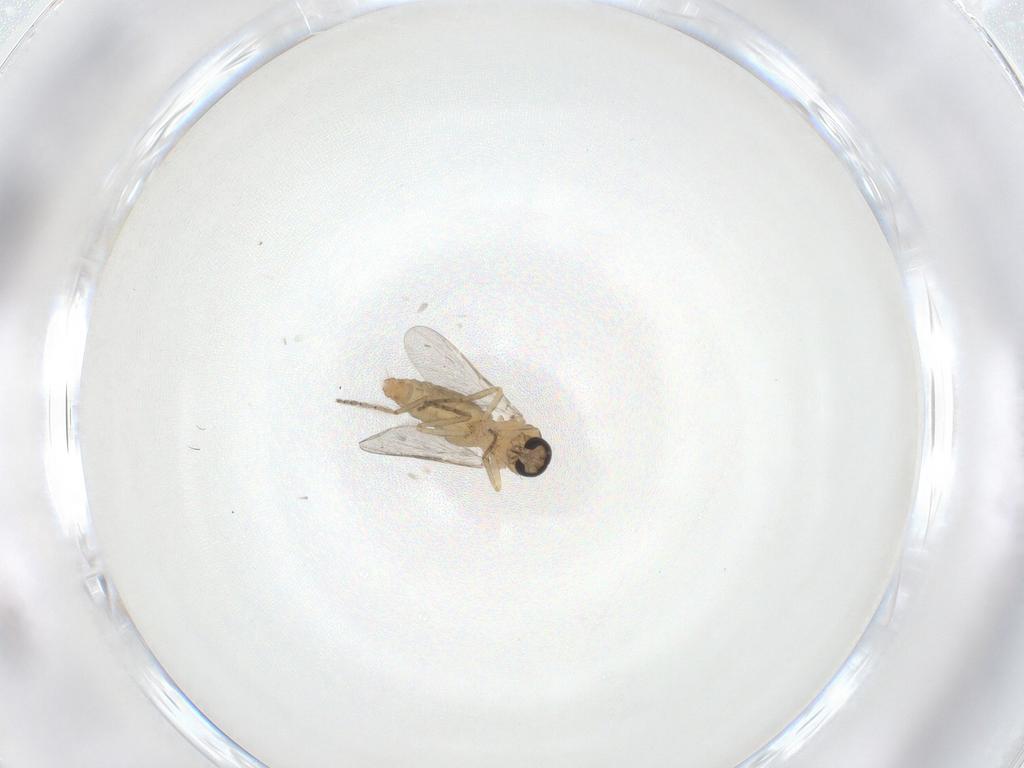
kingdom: Animalia
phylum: Arthropoda
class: Insecta
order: Diptera
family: Ceratopogonidae
